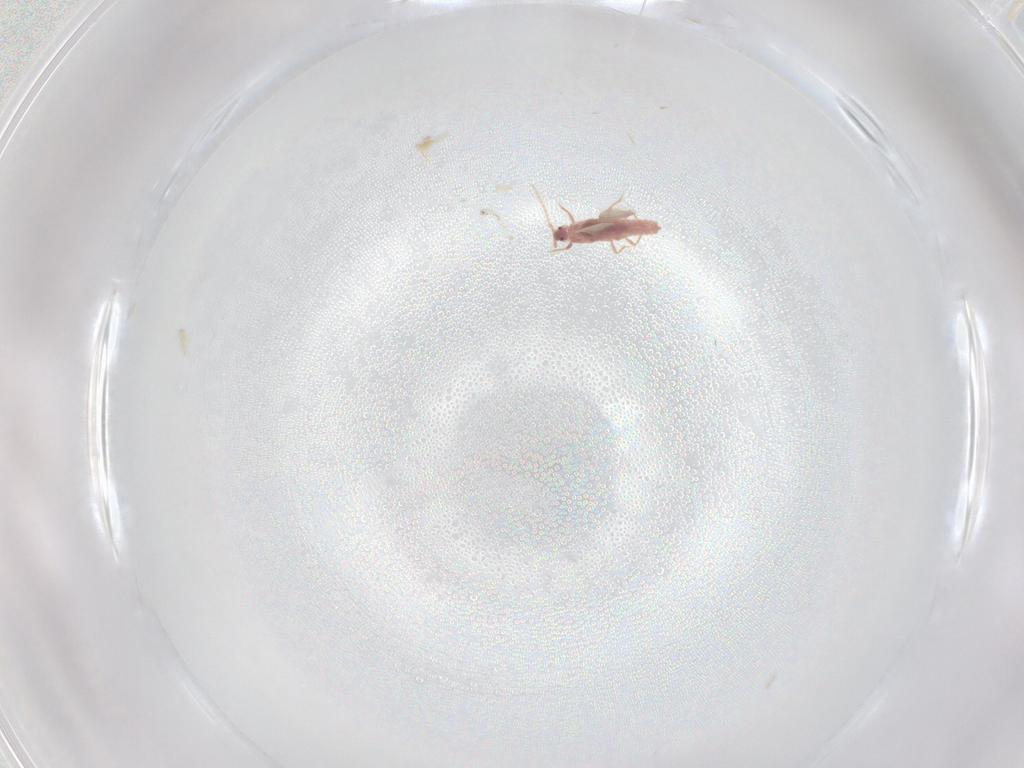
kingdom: Animalia
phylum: Arthropoda
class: Insecta
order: Hemiptera
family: Pseudococcidae
